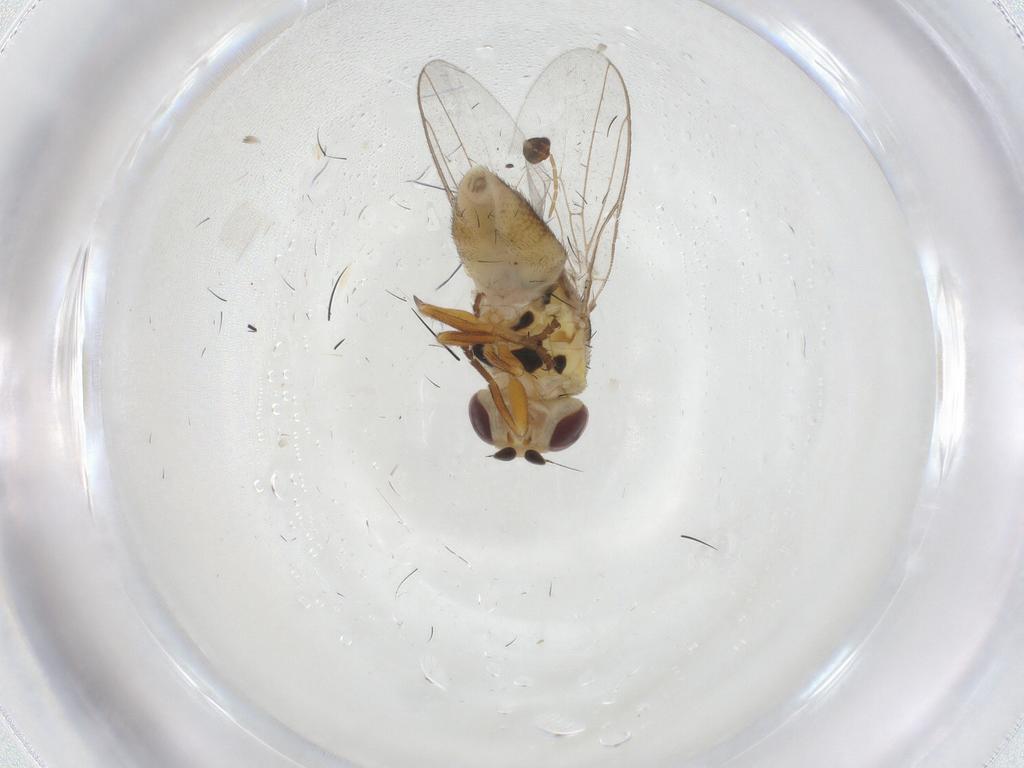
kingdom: Animalia
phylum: Arthropoda
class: Insecta
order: Diptera
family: Chloropidae
